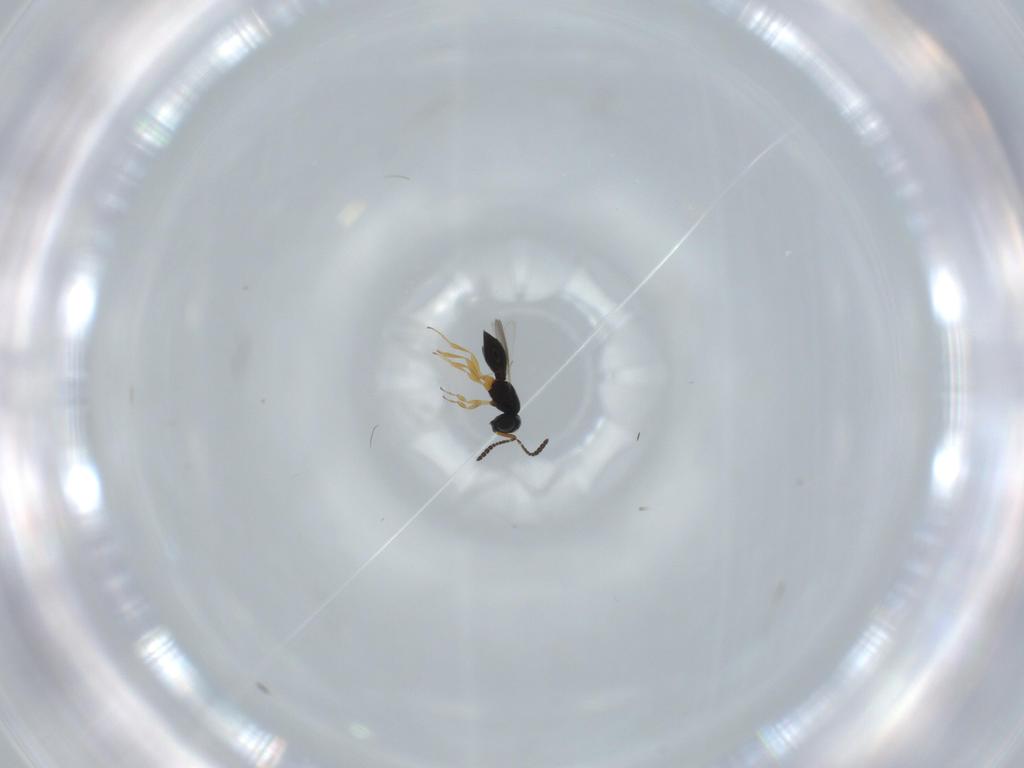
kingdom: Animalia
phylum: Arthropoda
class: Insecta
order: Hymenoptera
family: Scelionidae
